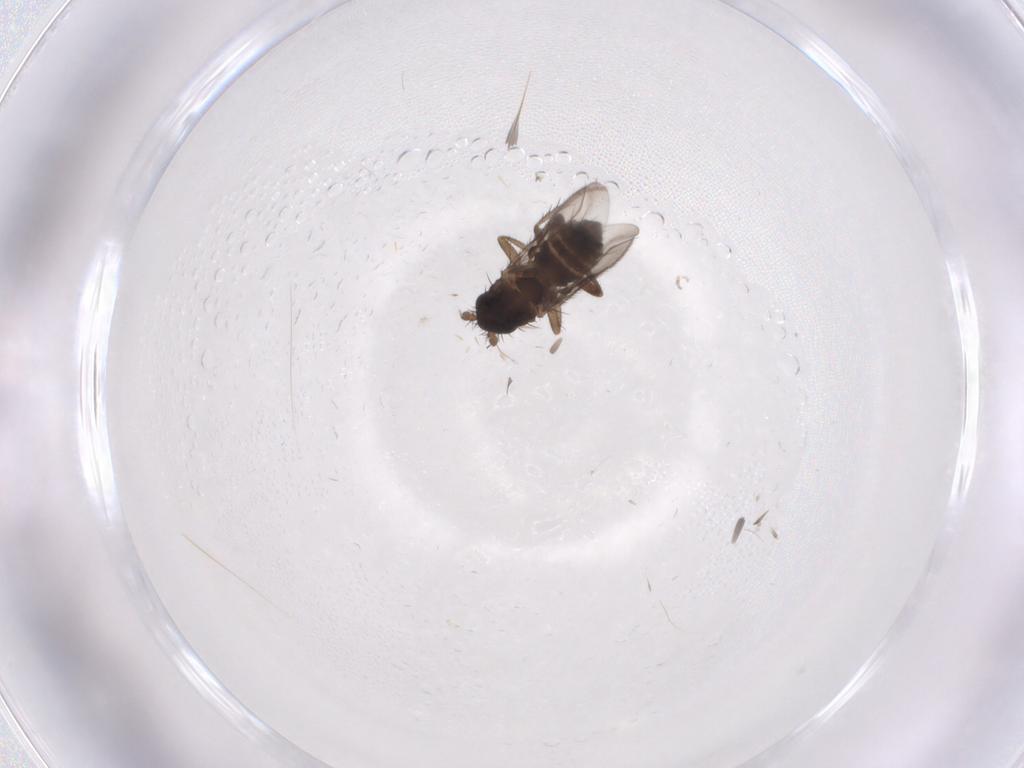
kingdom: Animalia
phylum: Arthropoda
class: Insecta
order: Diptera
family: Sphaeroceridae
